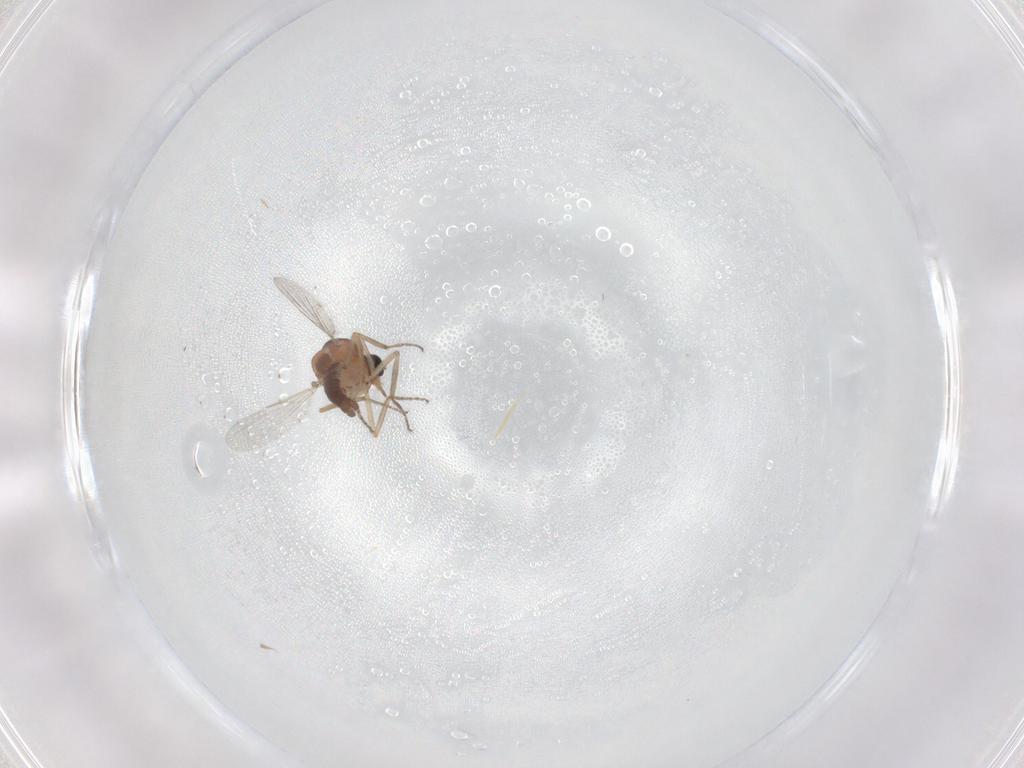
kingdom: Animalia
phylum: Arthropoda
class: Insecta
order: Diptera
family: Ceratopogonidae
